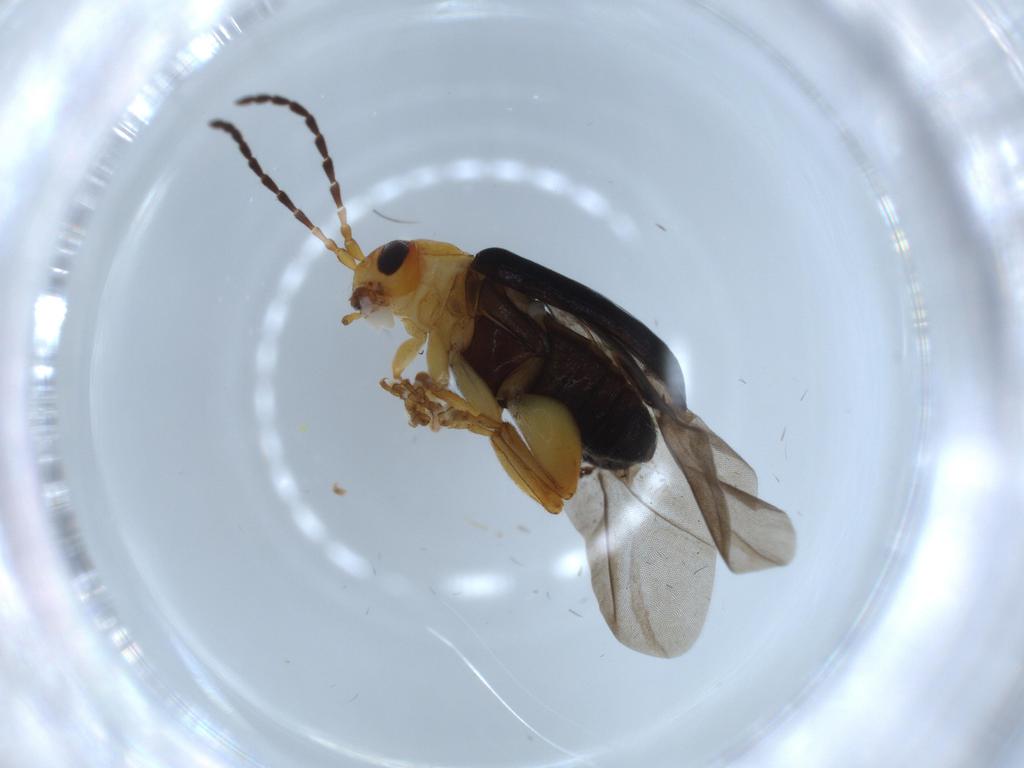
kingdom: Animalia
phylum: Arthropoda
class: Insecta
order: Coleoptera
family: Chrysomelidae
